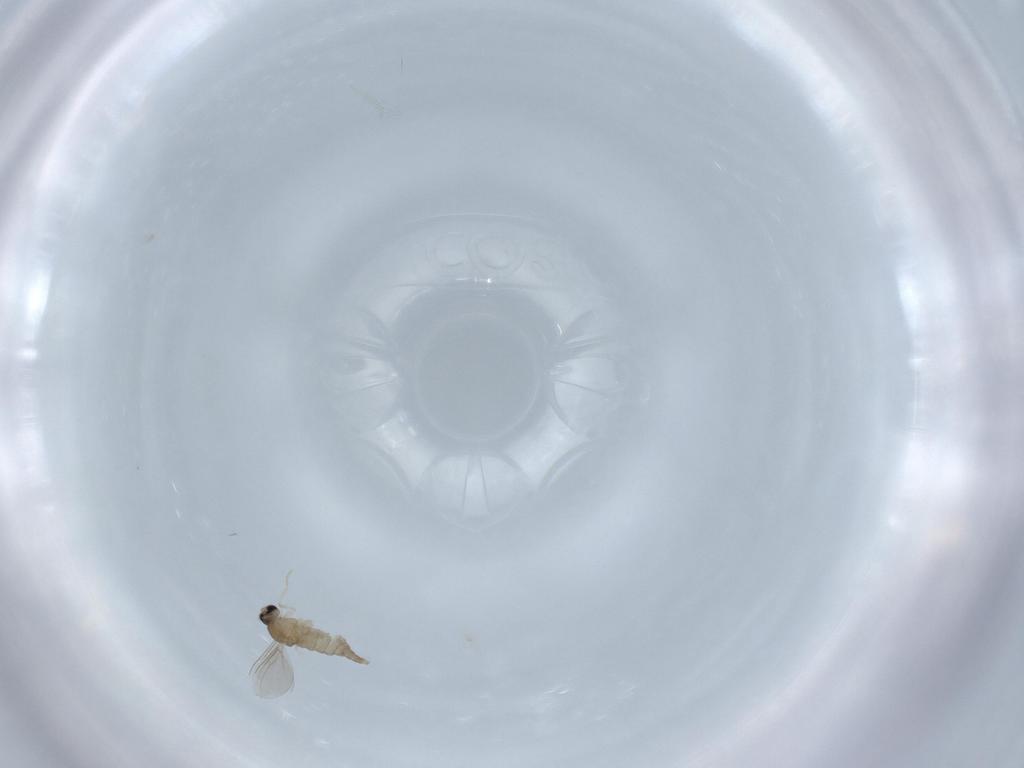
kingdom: Animalia
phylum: Arthropoda
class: Insecta
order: Diptera
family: Cecidomyiidae
